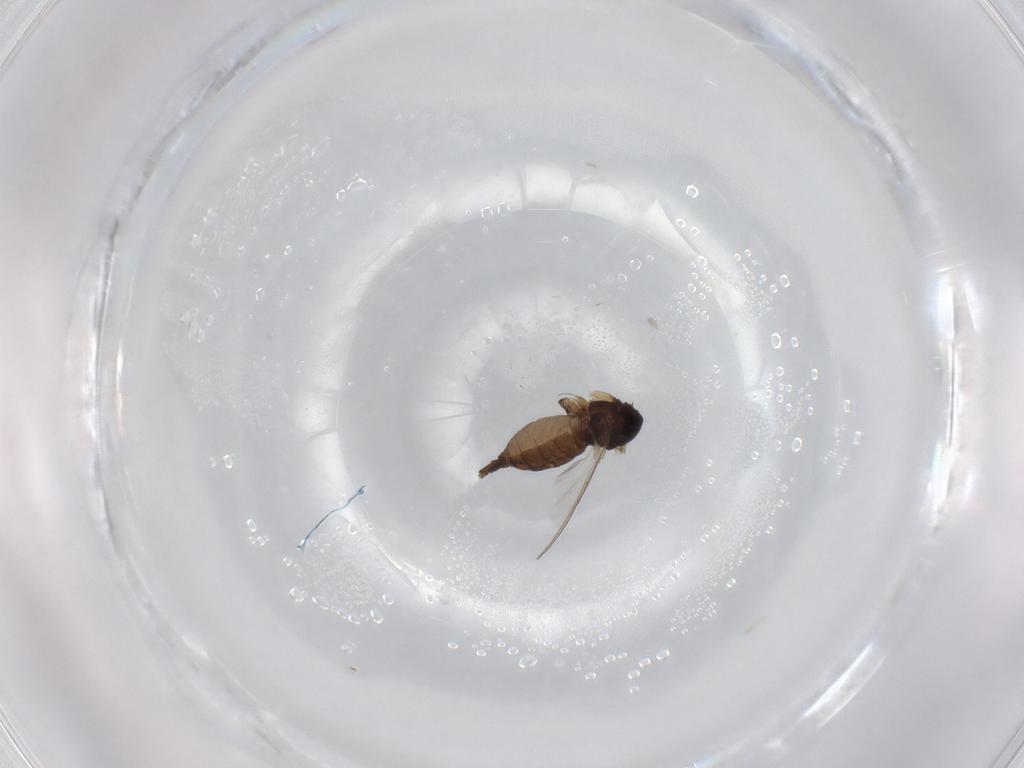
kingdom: Animalia
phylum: Arthropoda
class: Insecta
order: Diptera
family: Sciaridae
